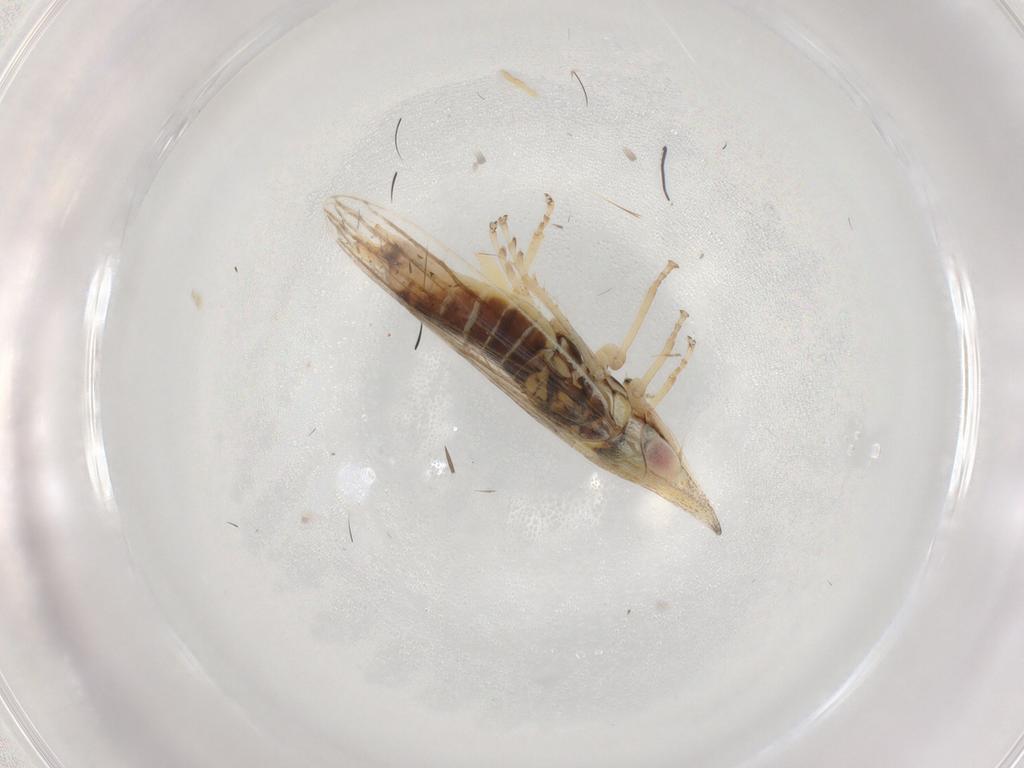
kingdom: Animalia
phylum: Arthropoda
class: Insecta
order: Hemiptera
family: Cicadellidae
